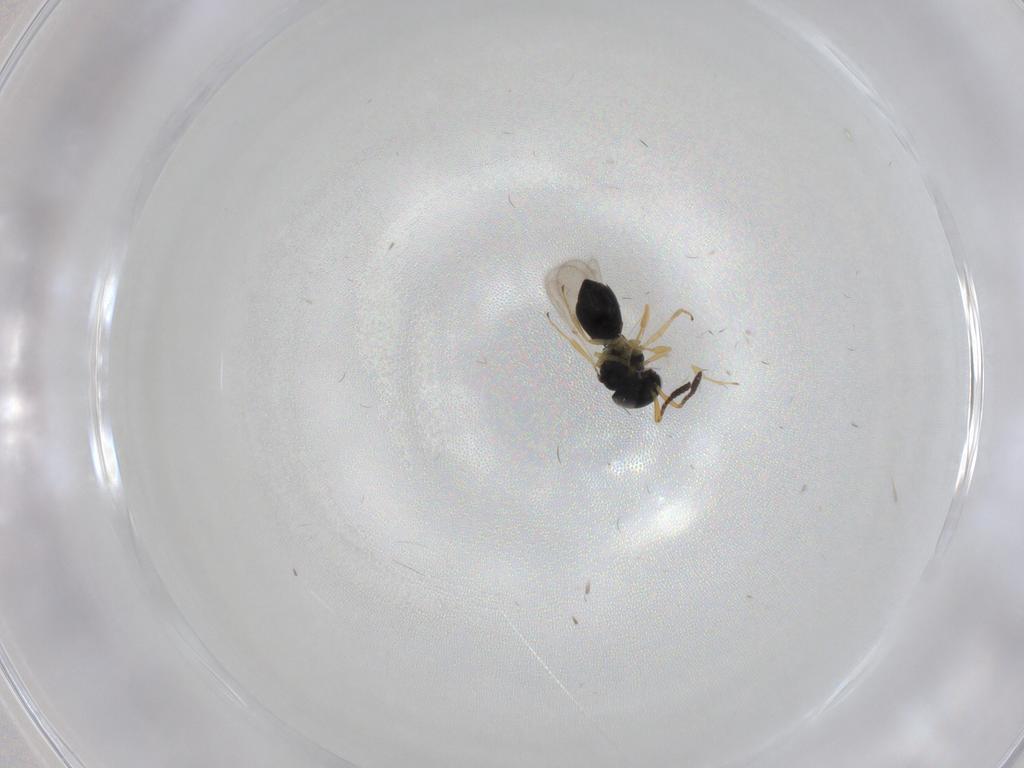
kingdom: Animalia
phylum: Arthropoda
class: Insecta
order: Hymenoptera
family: Scelionidae
